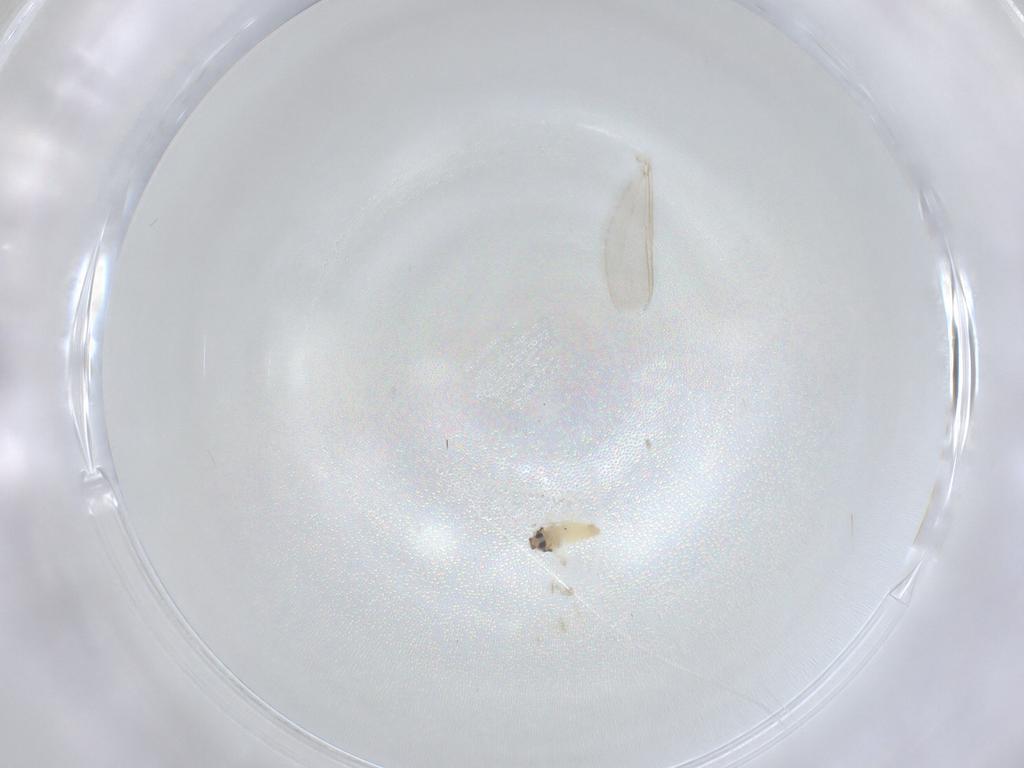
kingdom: Animalia
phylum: Arthropoda
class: Insecta
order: Hemiptera
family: Aleyrodidae
